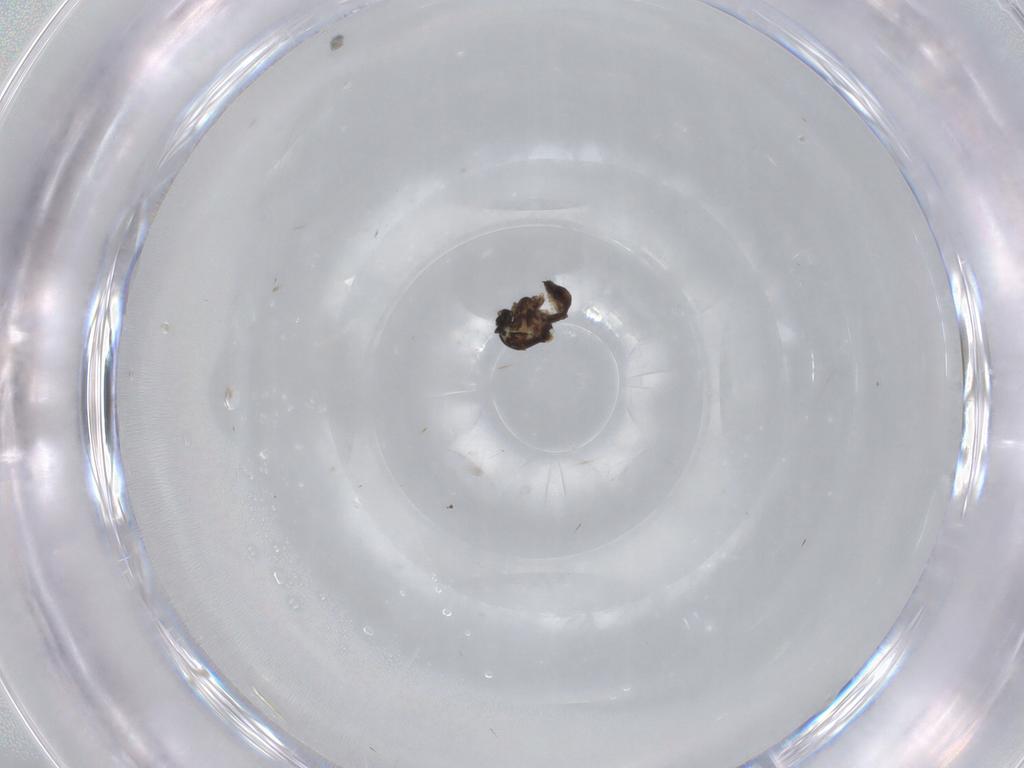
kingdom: Animalia
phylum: Arthropoda
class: Insecta
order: Diptera
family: Ceratopogonidae
